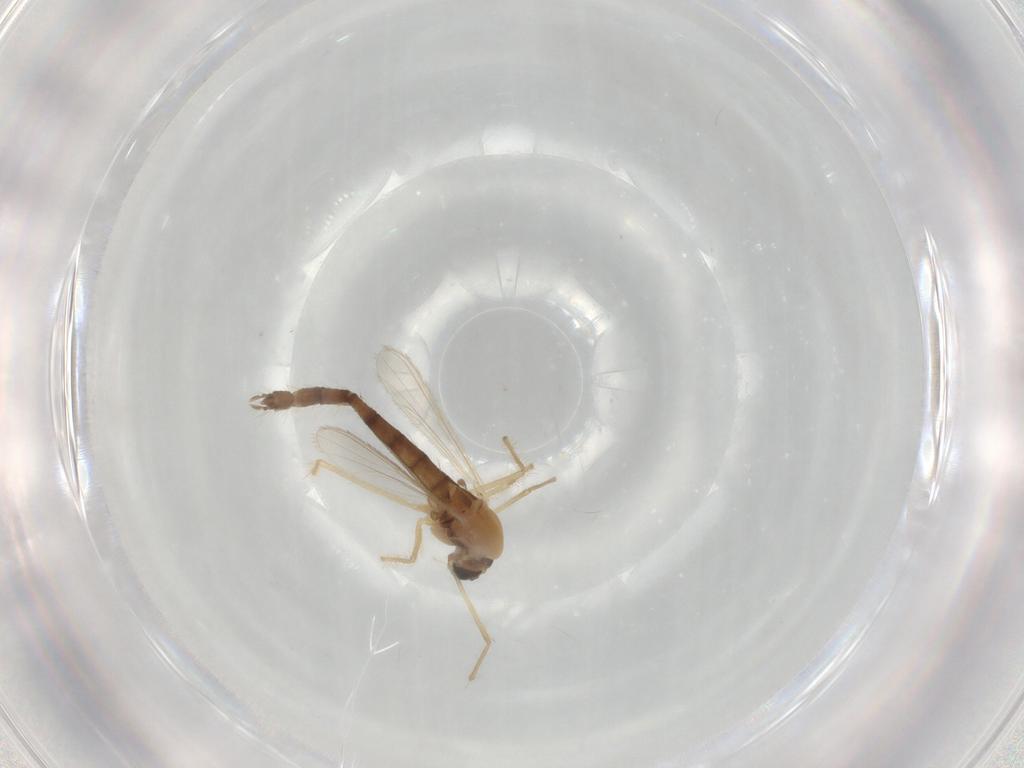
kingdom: Animalia
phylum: Arthropoda
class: Insecta
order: Diptera
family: Chironomidae
